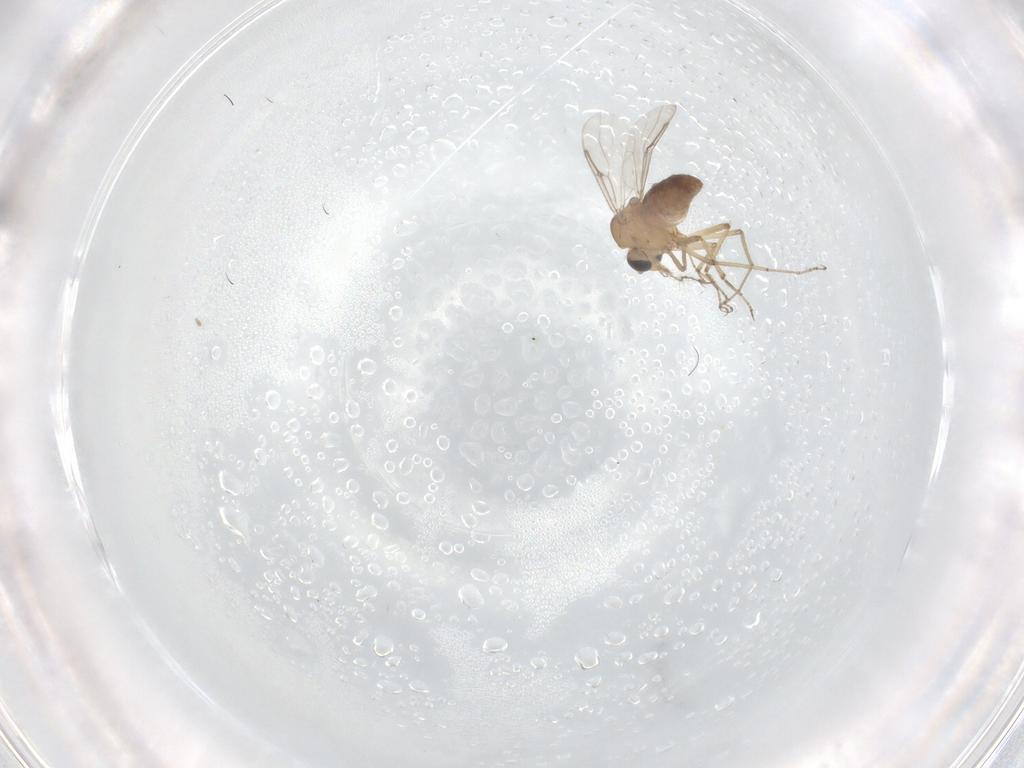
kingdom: Animalia
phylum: Arthropoda
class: Insecta
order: Diptera
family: Ceratopogonidae
